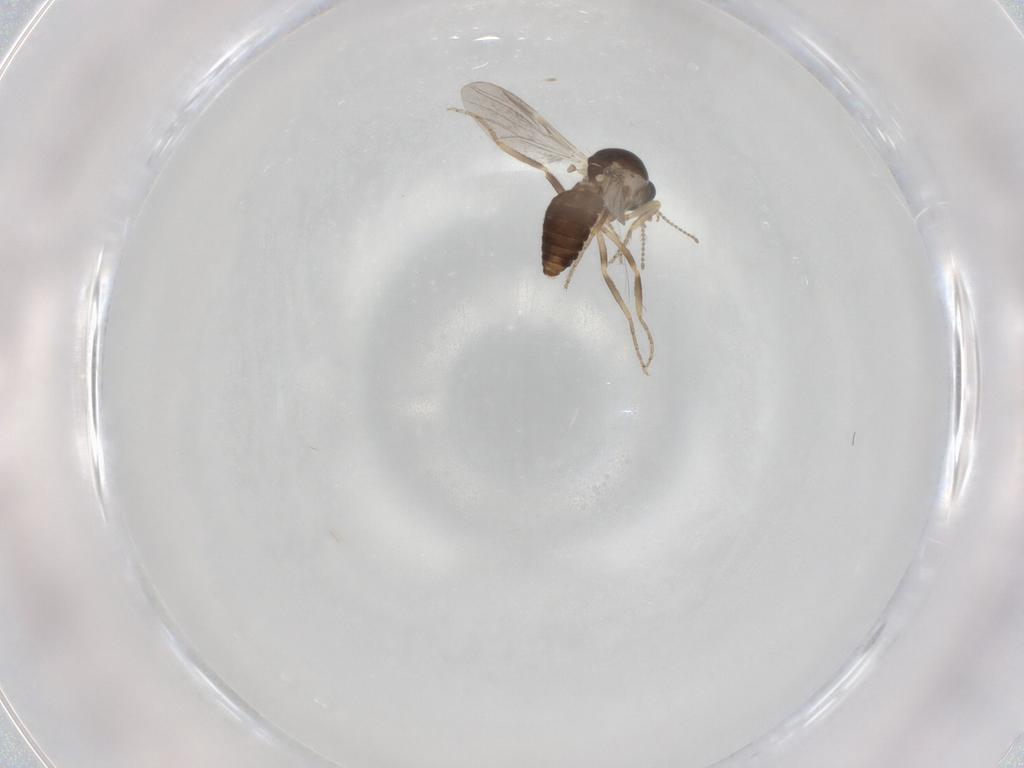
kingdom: Animalia
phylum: Arthropoda
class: Insecta
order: Diptera
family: Ceratopogonidae
